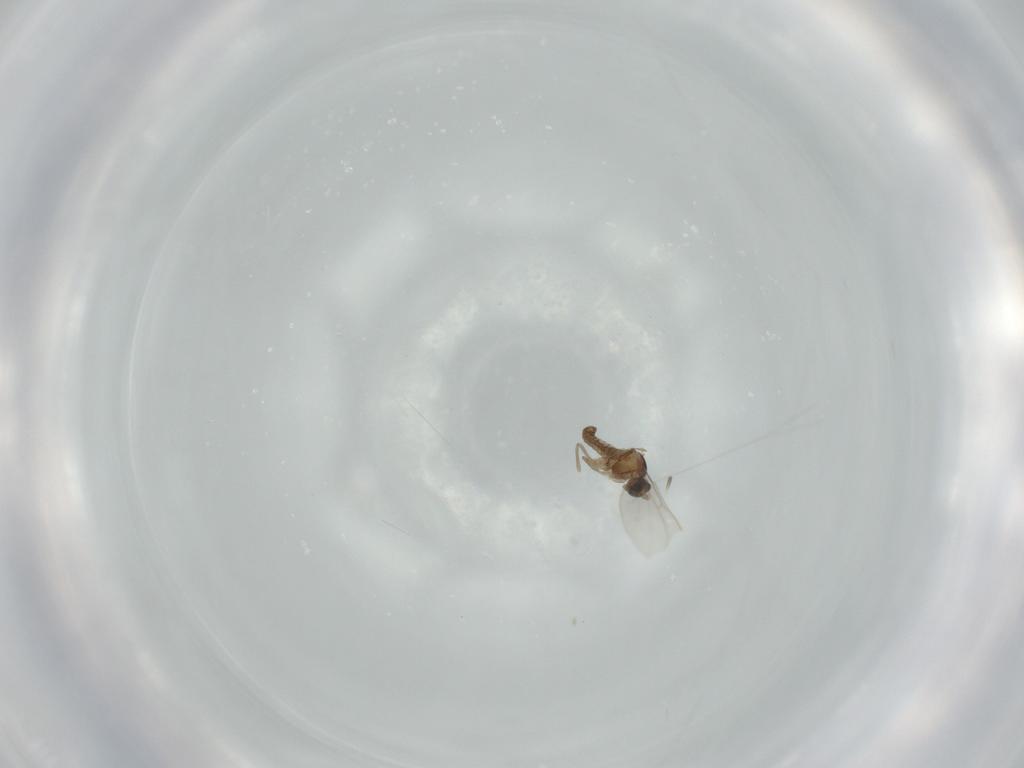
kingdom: Animalia
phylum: Arthropoda
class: Insecta
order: Diptera
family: Cecidomyiidae
